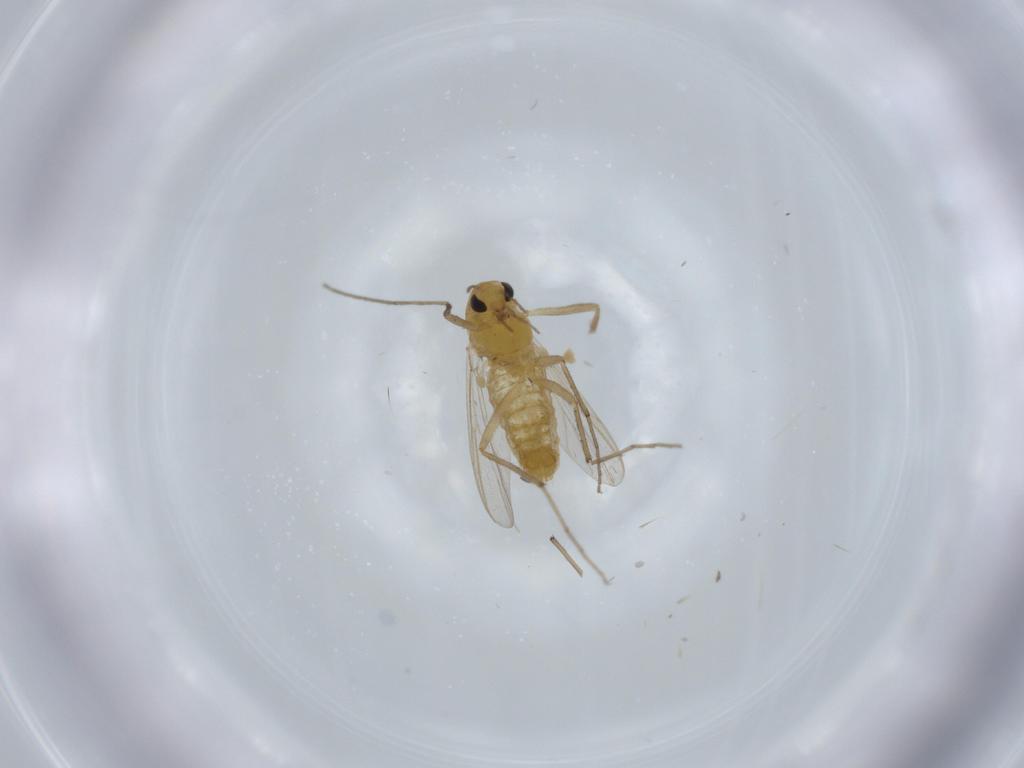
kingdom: Animalia
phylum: Arthropoda
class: Insecta
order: Diptera
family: Chironomidae
